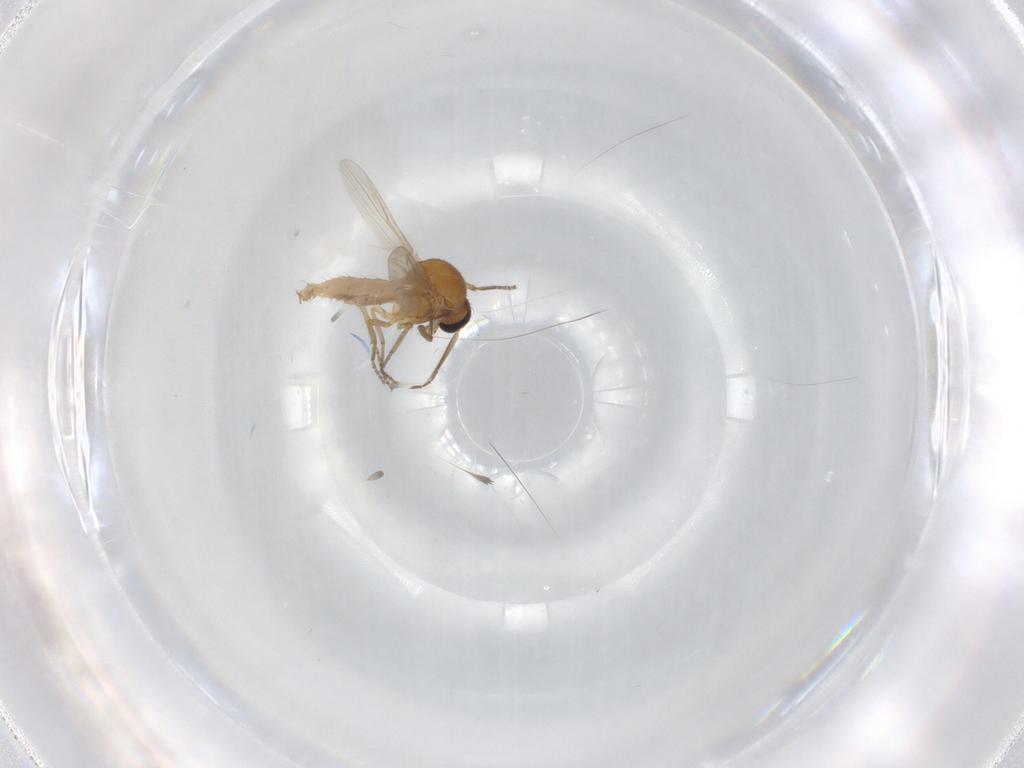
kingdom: Animalia
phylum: Arthropoda
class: Insecta
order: Diptera
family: Ceratopogonidae
